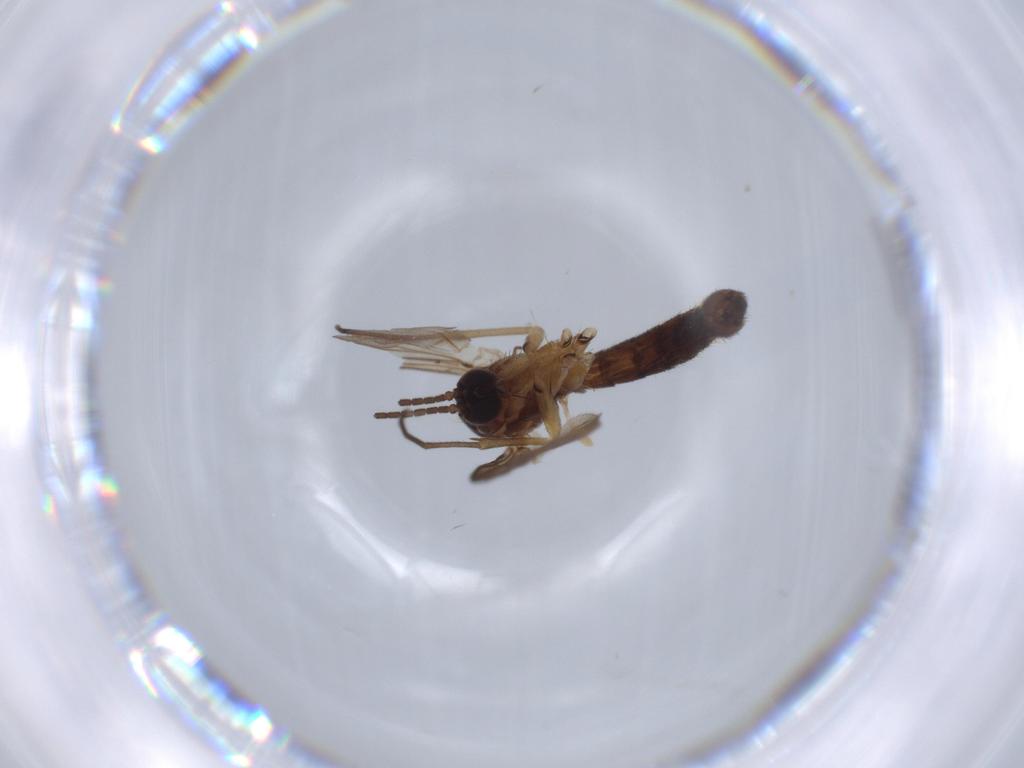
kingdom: Animalia
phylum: Arthropoda
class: Insecta
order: Diptera
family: Mycetophilidae
